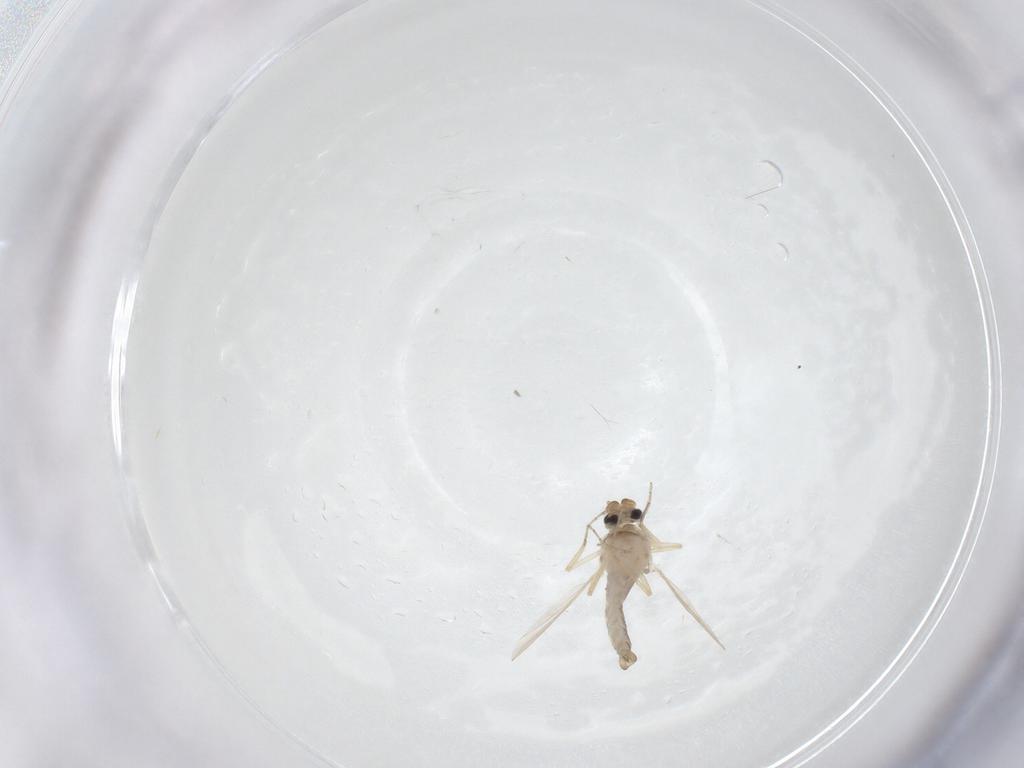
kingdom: Animalia
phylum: Arthropoda
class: Insecta
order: Diptera
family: Ceratopogonidae
